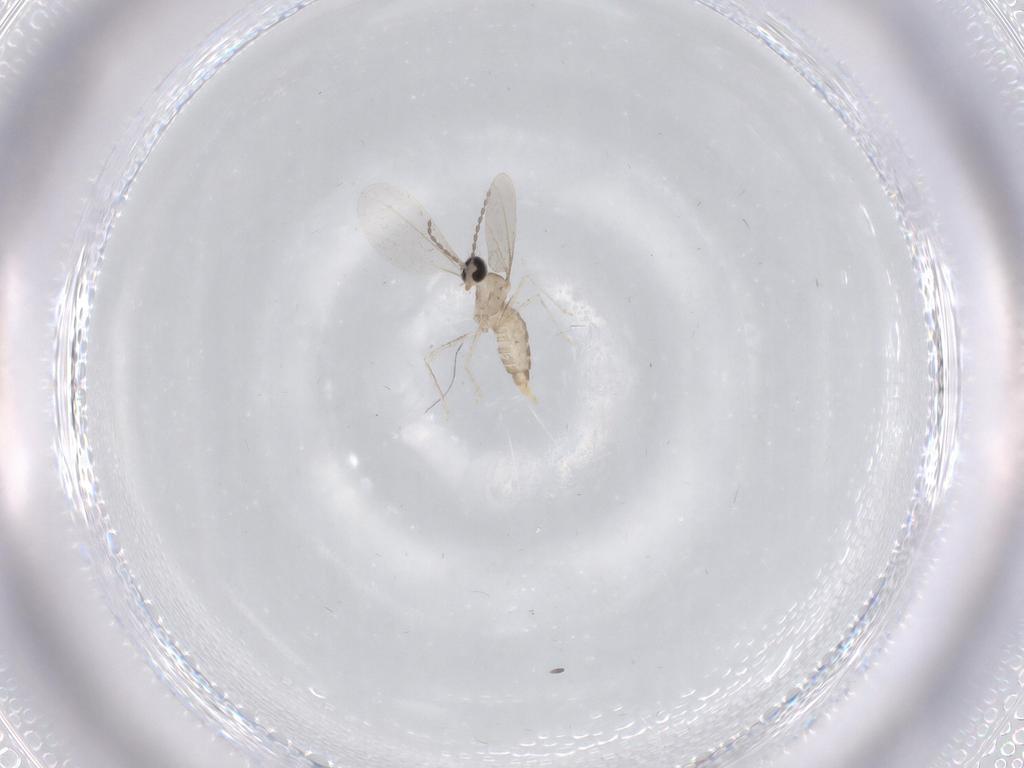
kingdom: Animalia
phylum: Arthropoda
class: Insecta
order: Diptera
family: Cecidomyiidae
